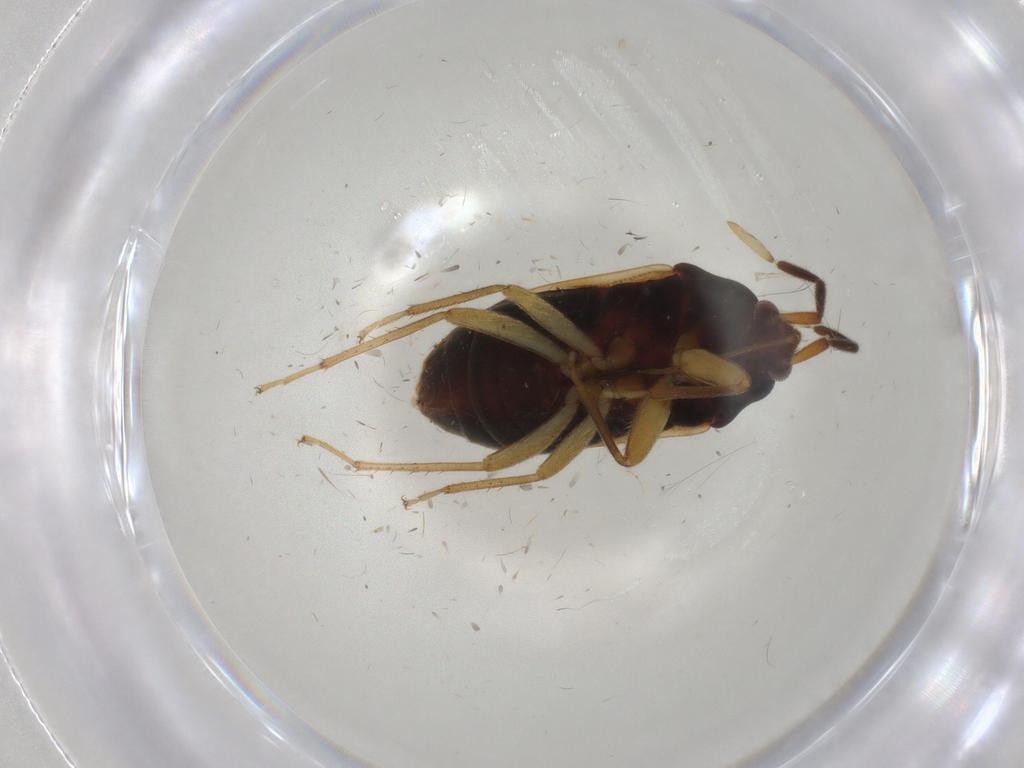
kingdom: Animalia
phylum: Arthropoda
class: Insecta
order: Hemiptera
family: Rhyparochromidae
